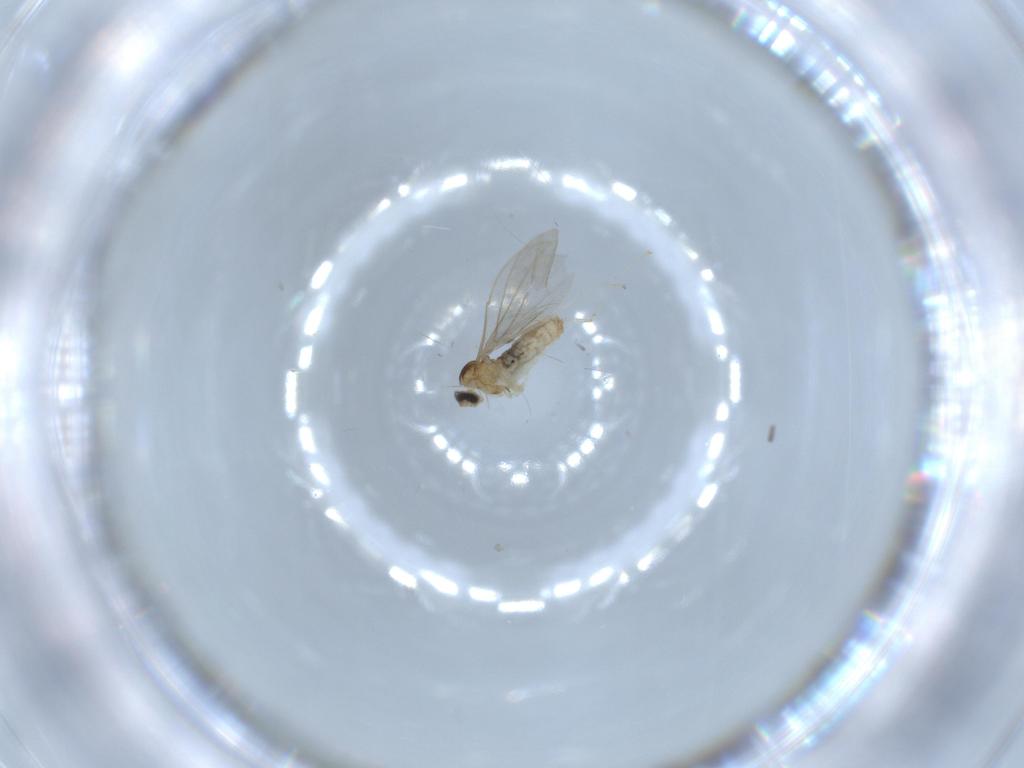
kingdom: Animalia
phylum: Arthropoda
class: Insecta
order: Diptera
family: Cecidomyiidae
